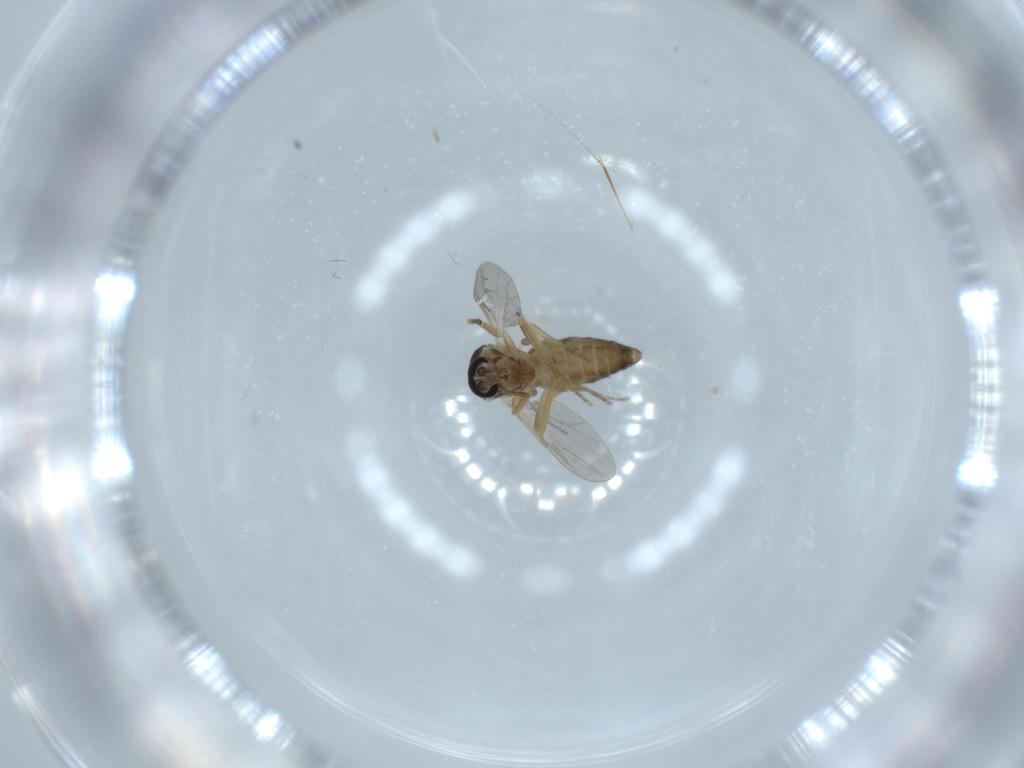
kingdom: Animalia
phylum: Arthropoda
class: Insecta
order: Diptera
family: Ceratopogonidae
